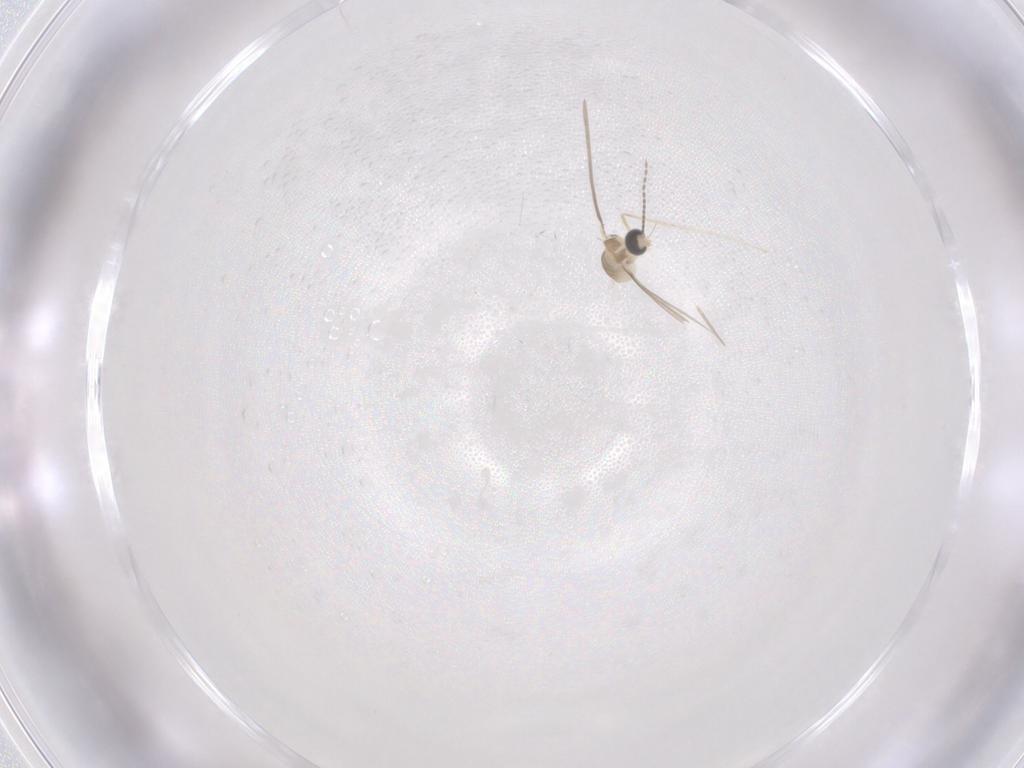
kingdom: Animalia
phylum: Arthropoda
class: Insecta
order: Diptera
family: Cecidomyiidae
